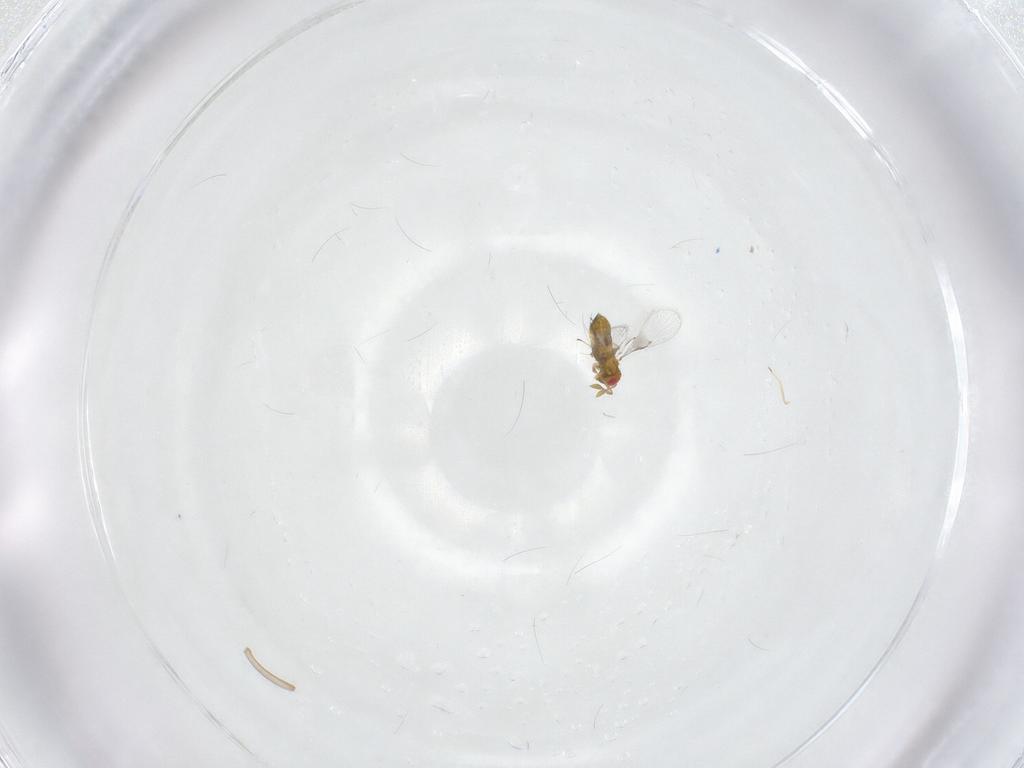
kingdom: Animalia
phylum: Arthropoda
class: Insecta
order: Hymenoptera
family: Trichogrammatidae
